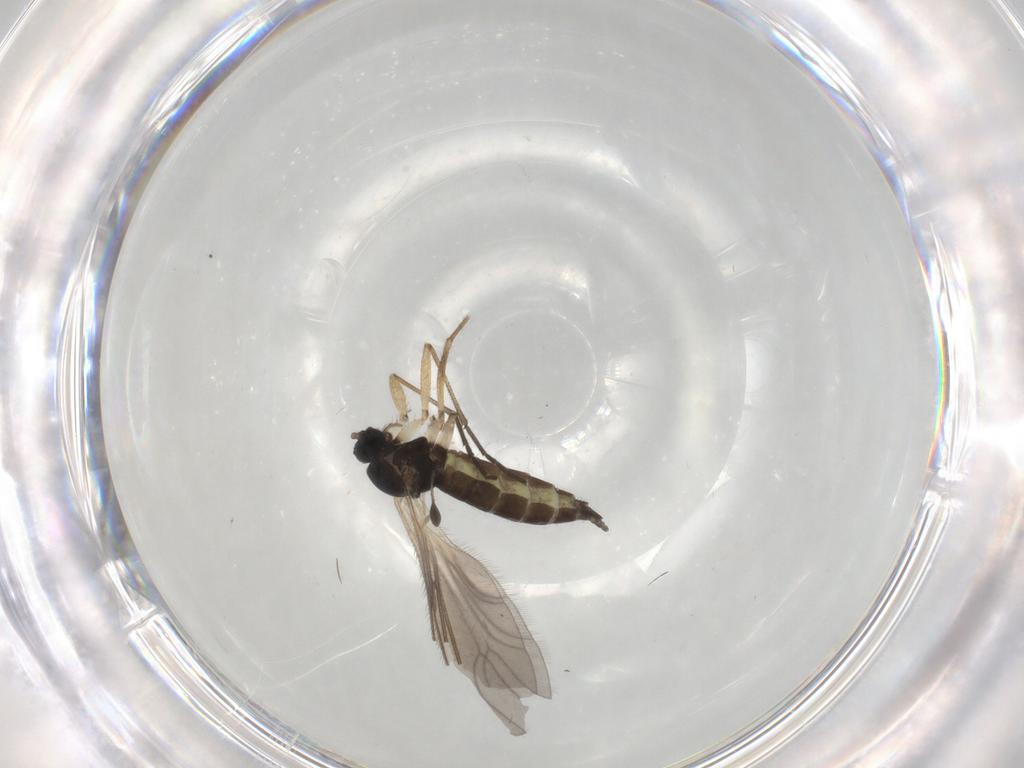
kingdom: Animalia
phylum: Arthropoda
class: Insecta
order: Diptera
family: Sciaridae
